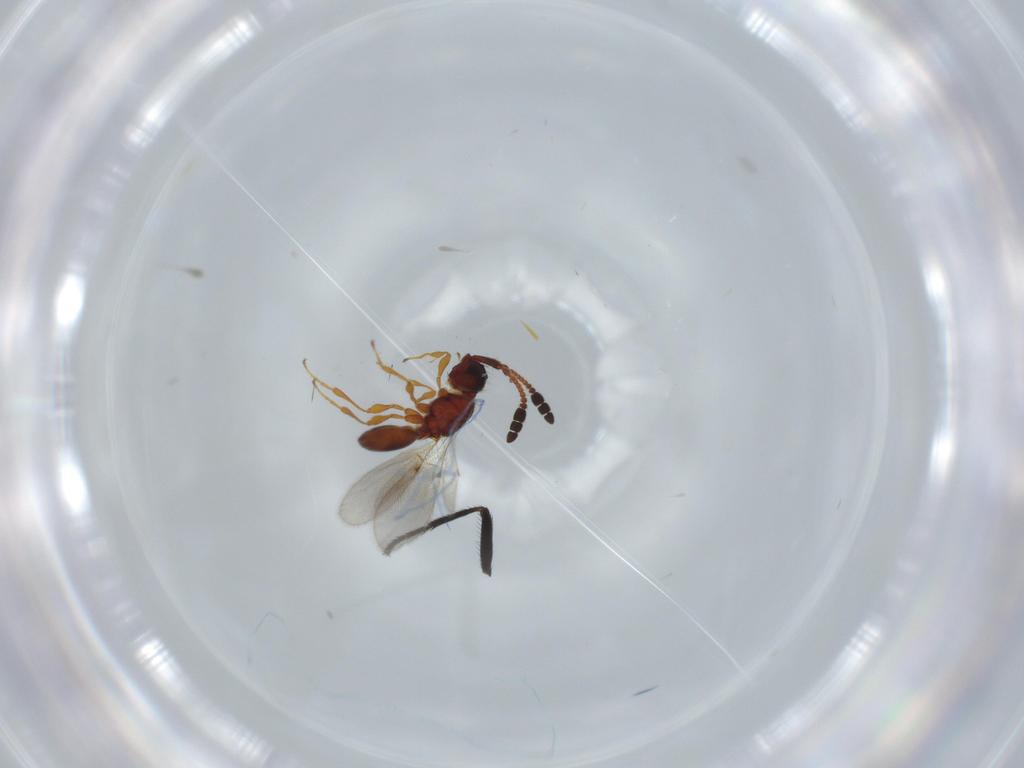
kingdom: Animalia
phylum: Arthropoda
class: Insecta
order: Hymenoptera
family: Diapriidae
